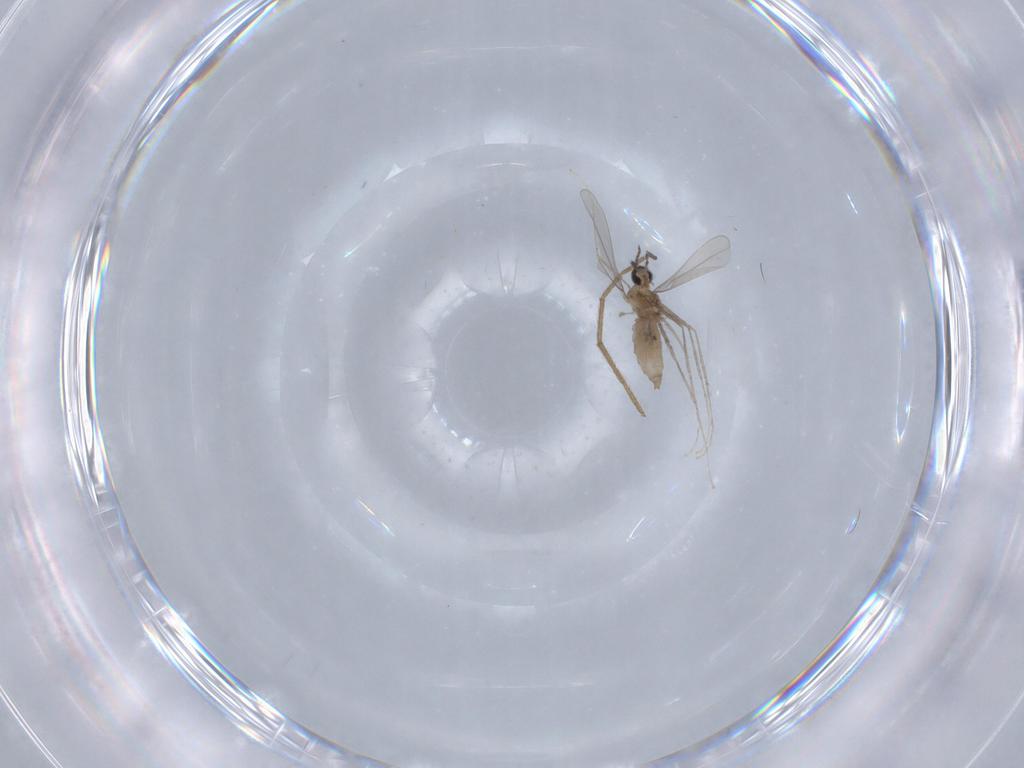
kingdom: Animalia
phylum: Arthropoda
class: Insecta
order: Diptera
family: Cecidomyiidae
